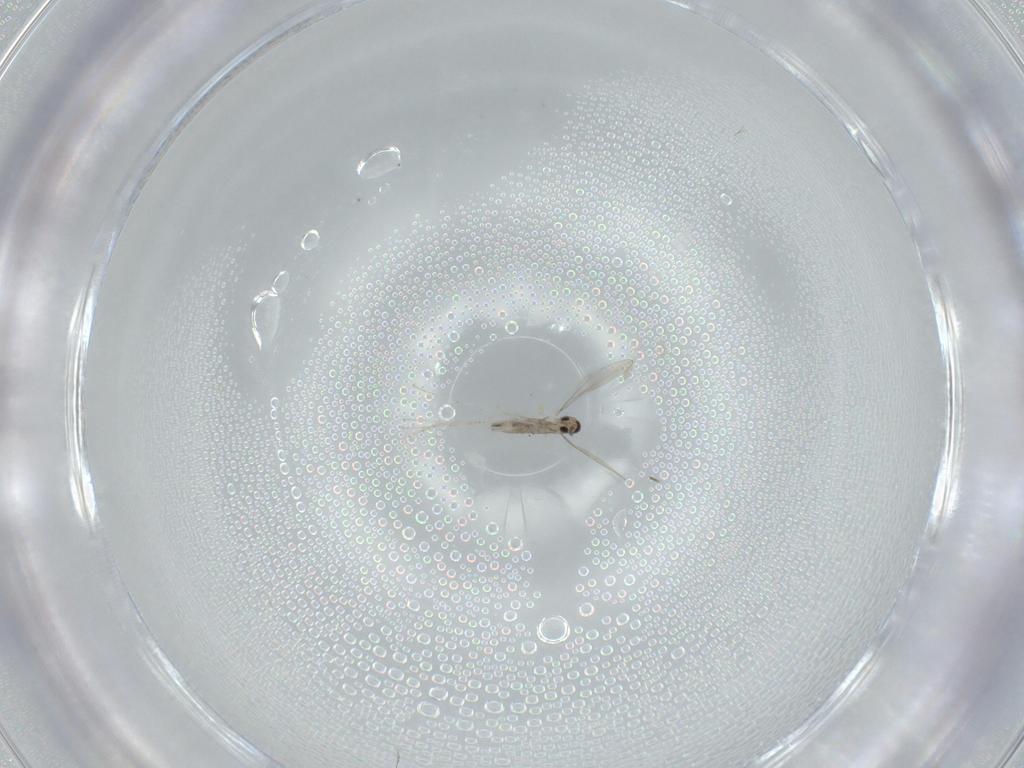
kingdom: Animalia
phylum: Arthropoda
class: Insecta
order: Diptera
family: Cecidomyiidae
